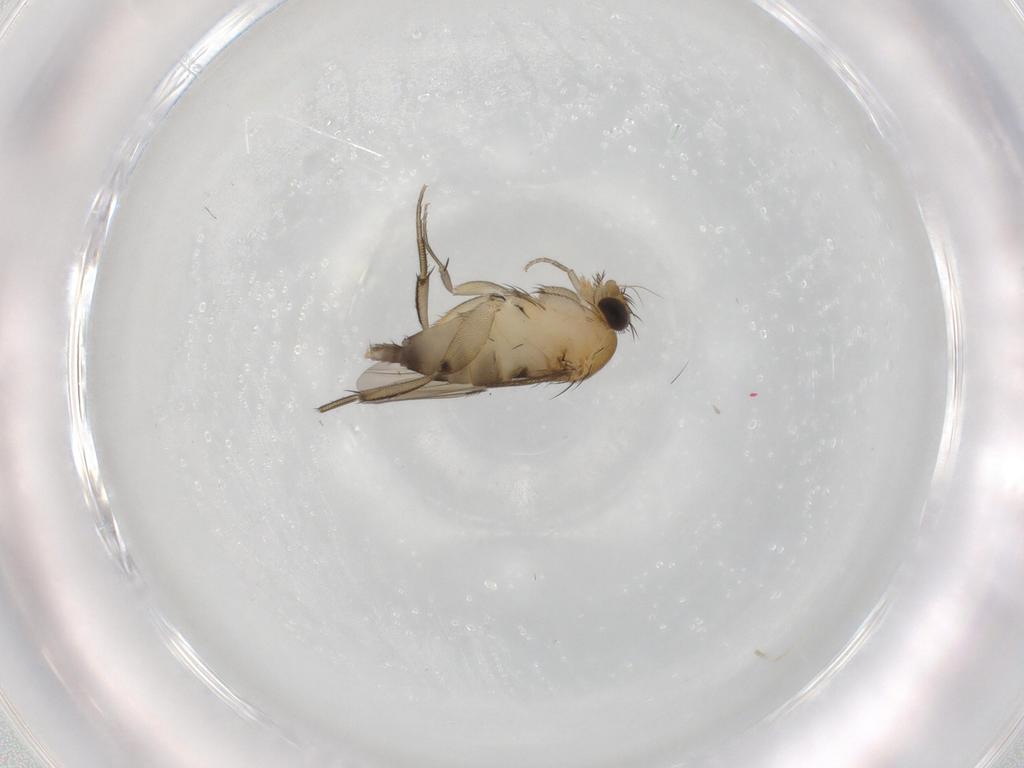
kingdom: Animalia
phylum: Arthropoda
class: Insecta
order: Diptera
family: Phoridae
